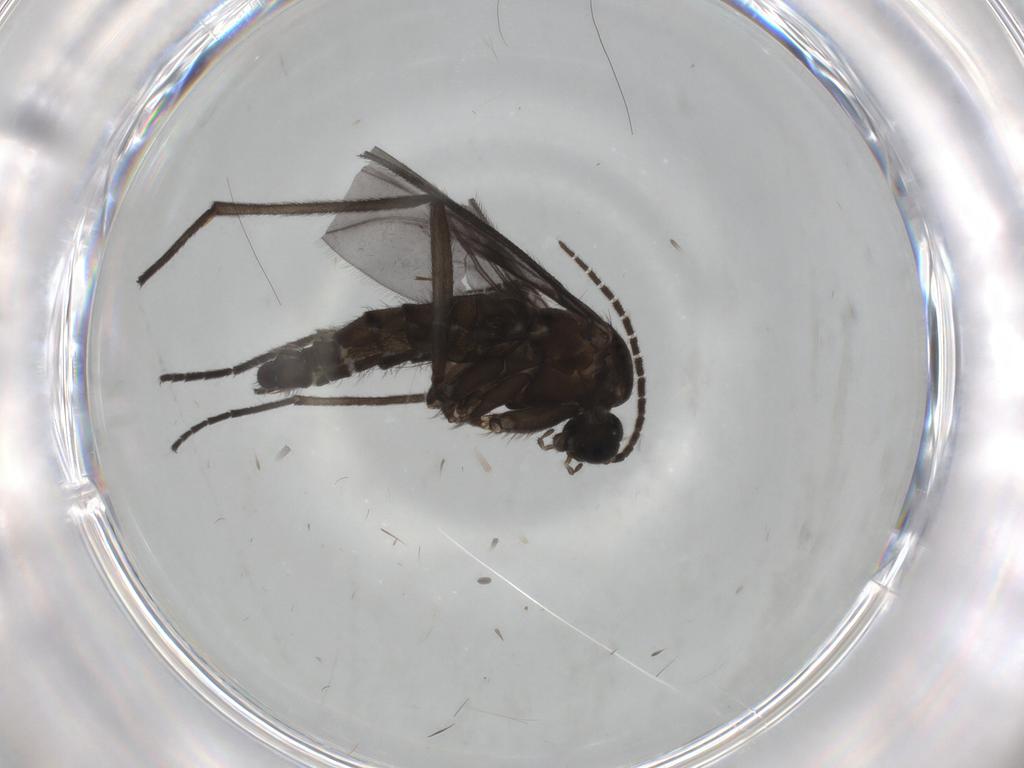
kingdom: Animalia
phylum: Arthropoda
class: Insecta
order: Diptera
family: Sciaridae
